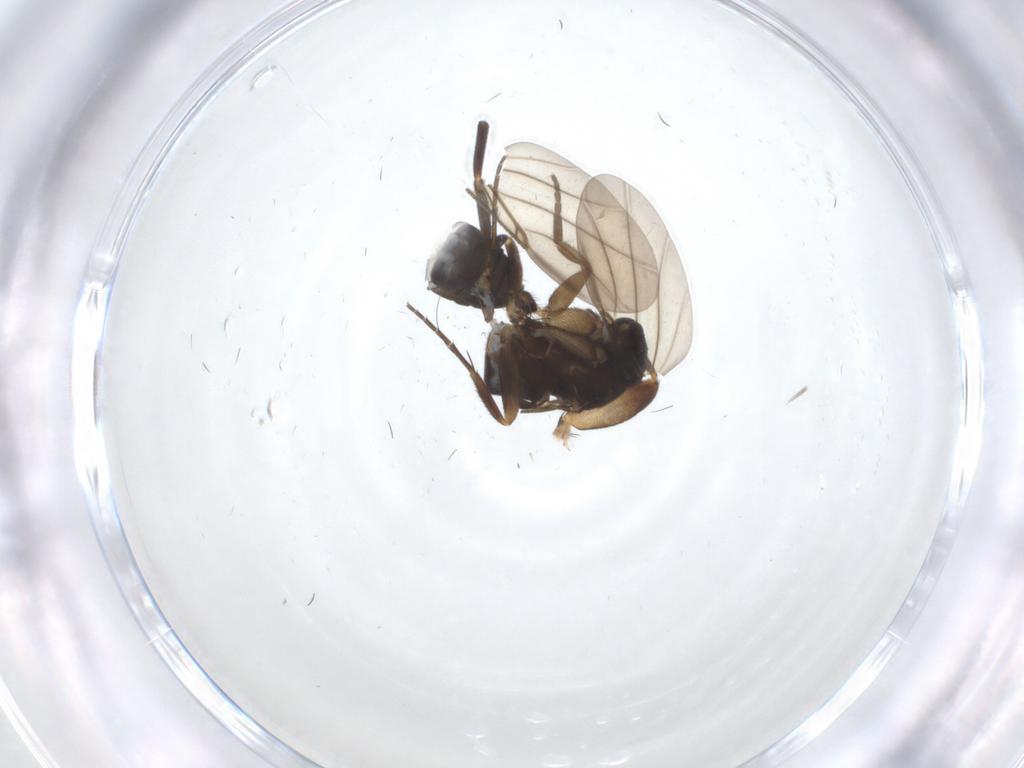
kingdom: Animalia
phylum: Arthropoda
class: Insecta
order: Diptera
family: Phoridae
